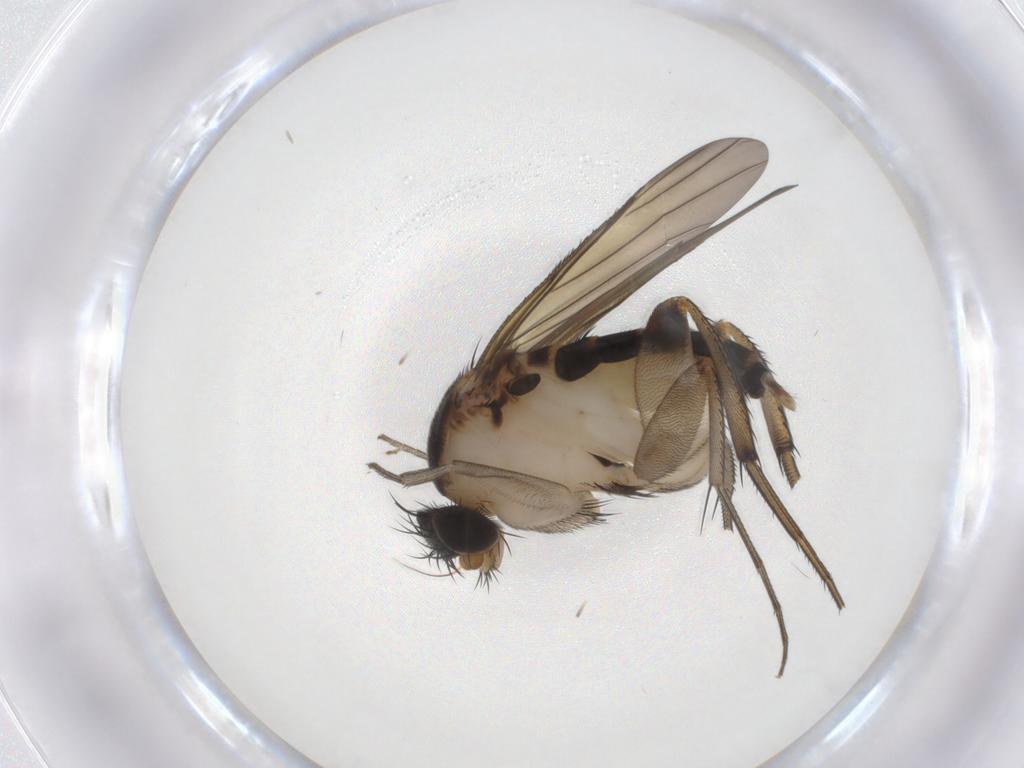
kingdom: Animalia
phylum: Arthropoda
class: Insecta
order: Diptera
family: Phoridae
